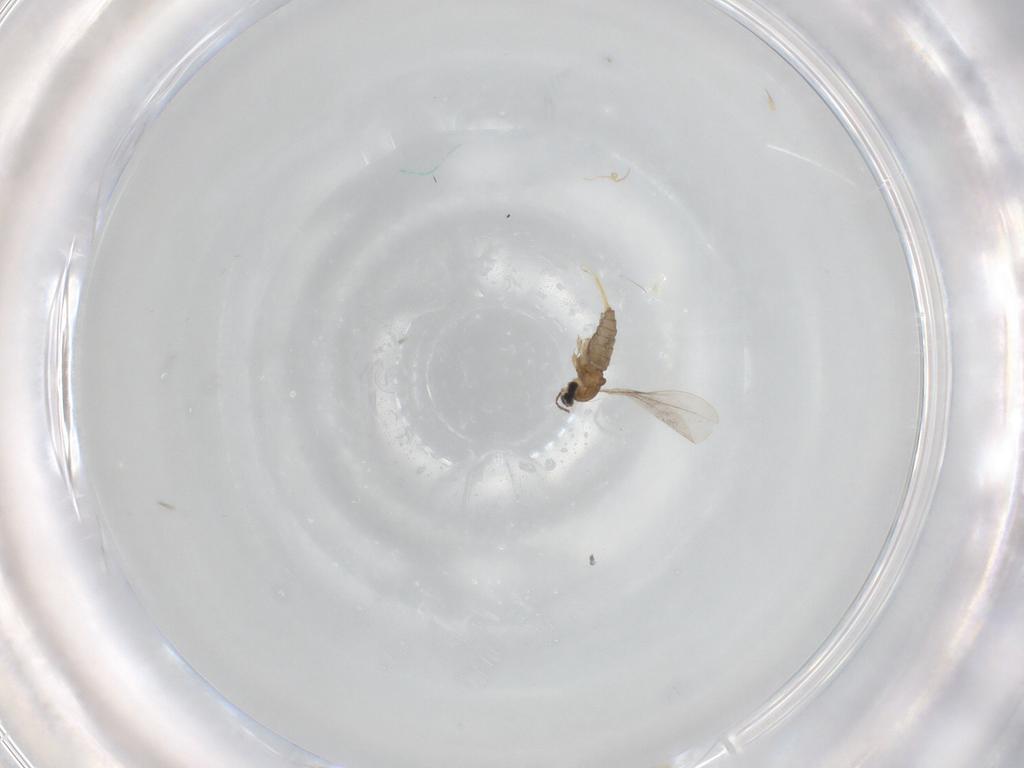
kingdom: Animalia
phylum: Arthropoda
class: Insecta
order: Diptera
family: Cecidomyiidae
